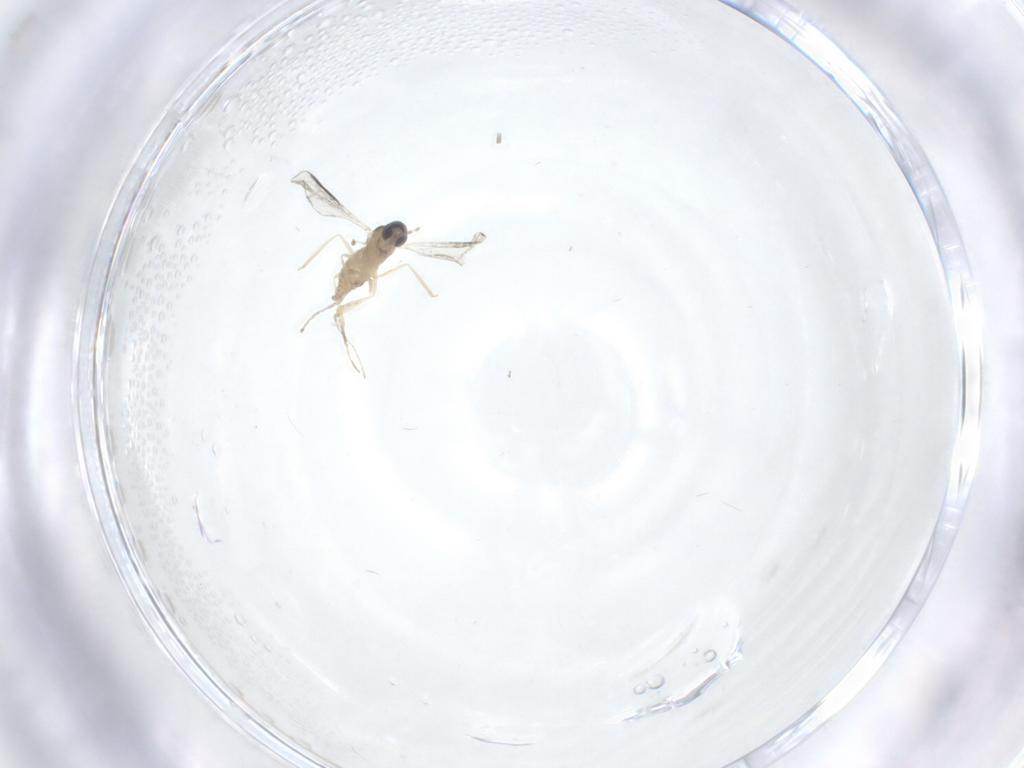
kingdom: Animalia
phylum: Arthropoda
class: Insecta
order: Diptera
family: Cecidomyiidae
